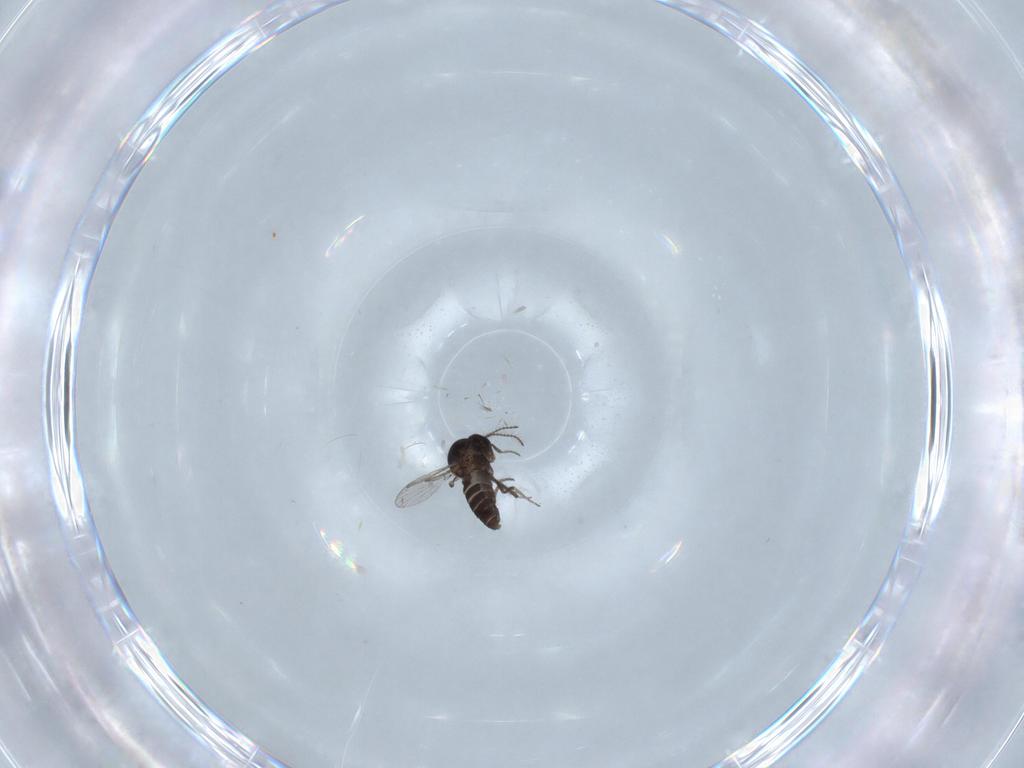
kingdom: Animalia
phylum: Arthropoda
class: Insecta
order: Diptera
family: Ceratopogonidae
